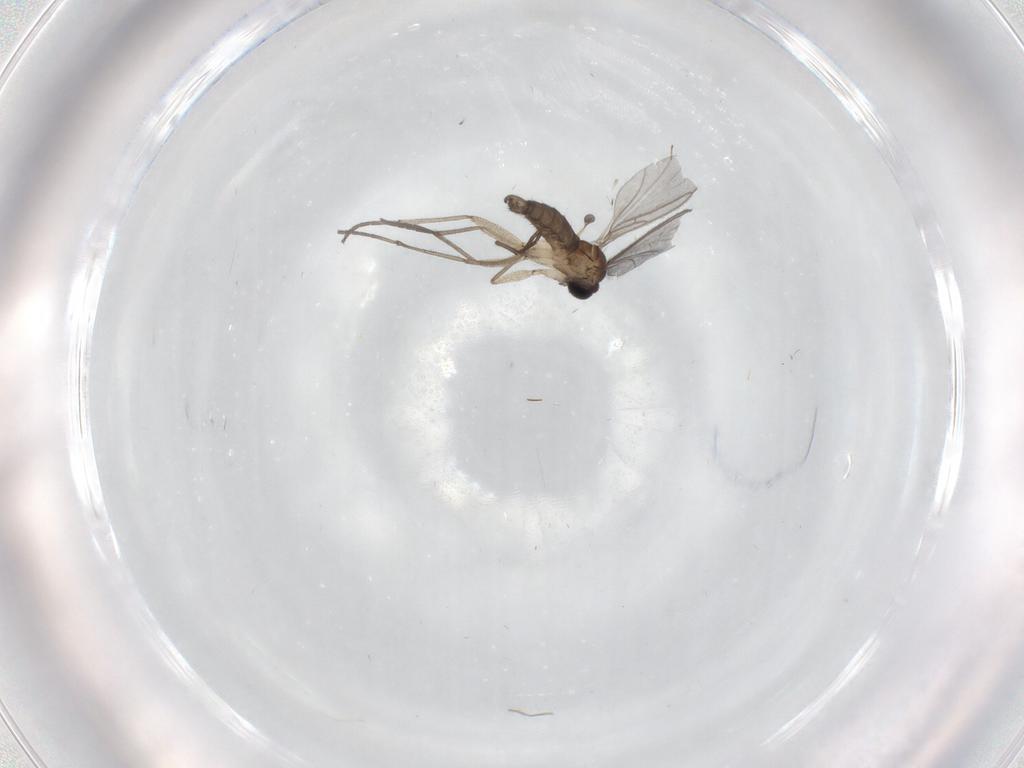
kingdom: Animalia
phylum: Arthropoda
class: Insecta
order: Diptera
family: Sciaridae
